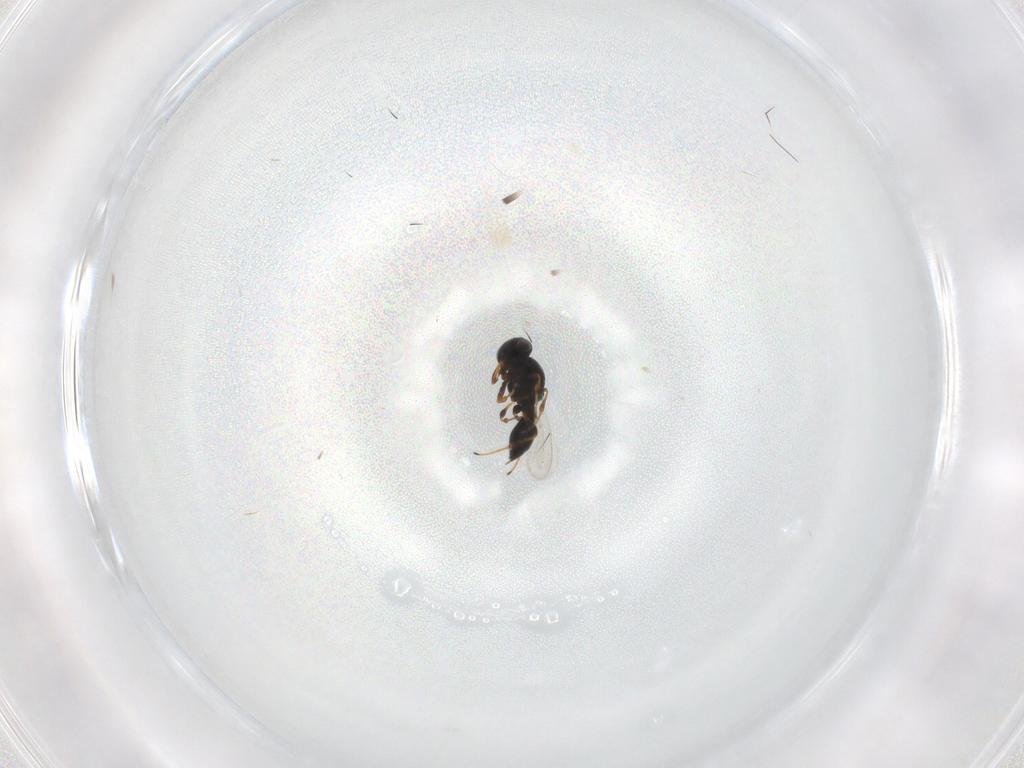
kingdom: Animalia
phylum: Arthropoda
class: Insecta
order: Hymenoptera
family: Platygastridae
